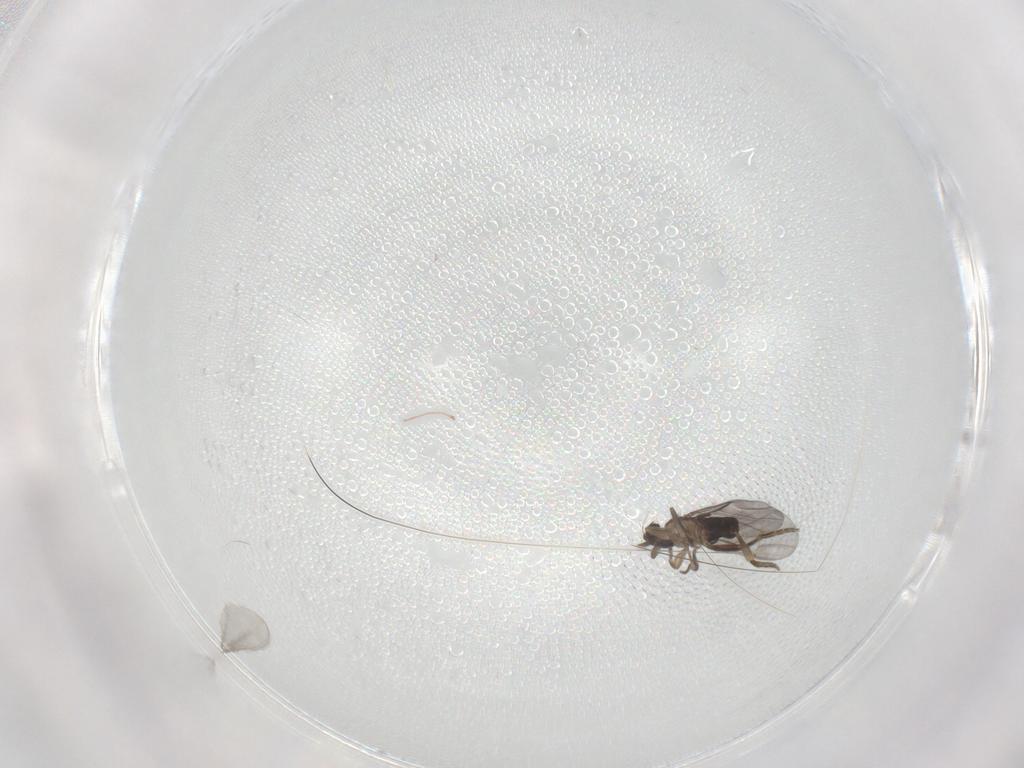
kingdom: Animalia
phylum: Arthropoda
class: Insecta
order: Diptera
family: Cecidomyiidae
